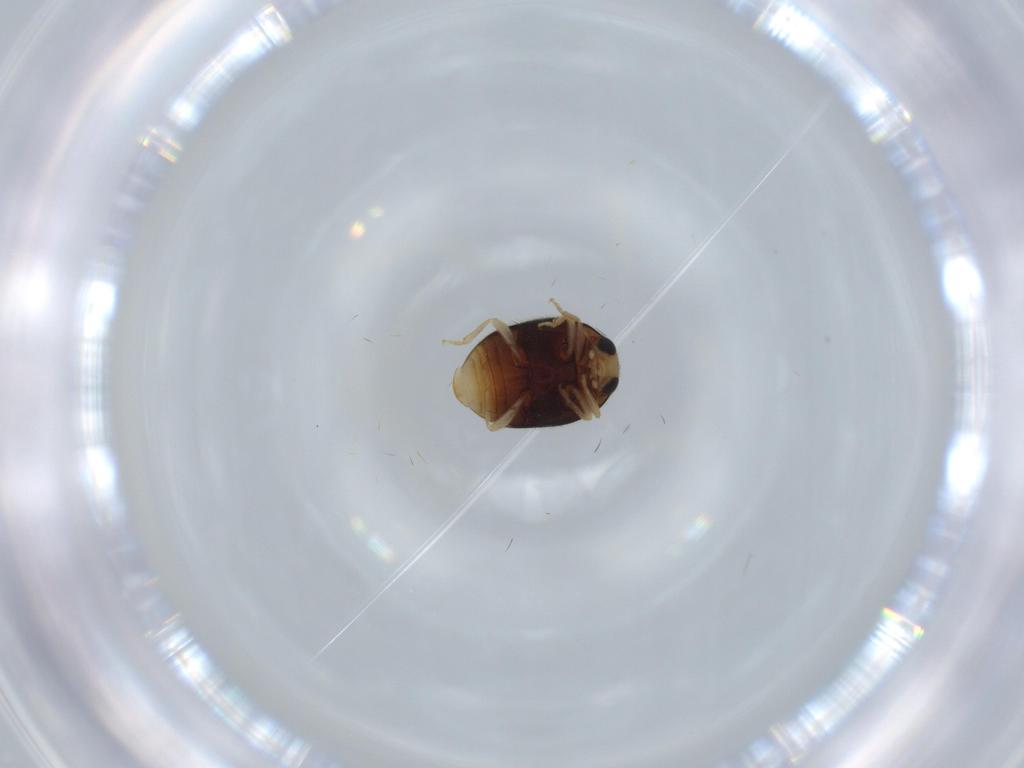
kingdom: Animalia
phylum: Arthropoda
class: Insecta
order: Coleoptera
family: Coccinellidae
